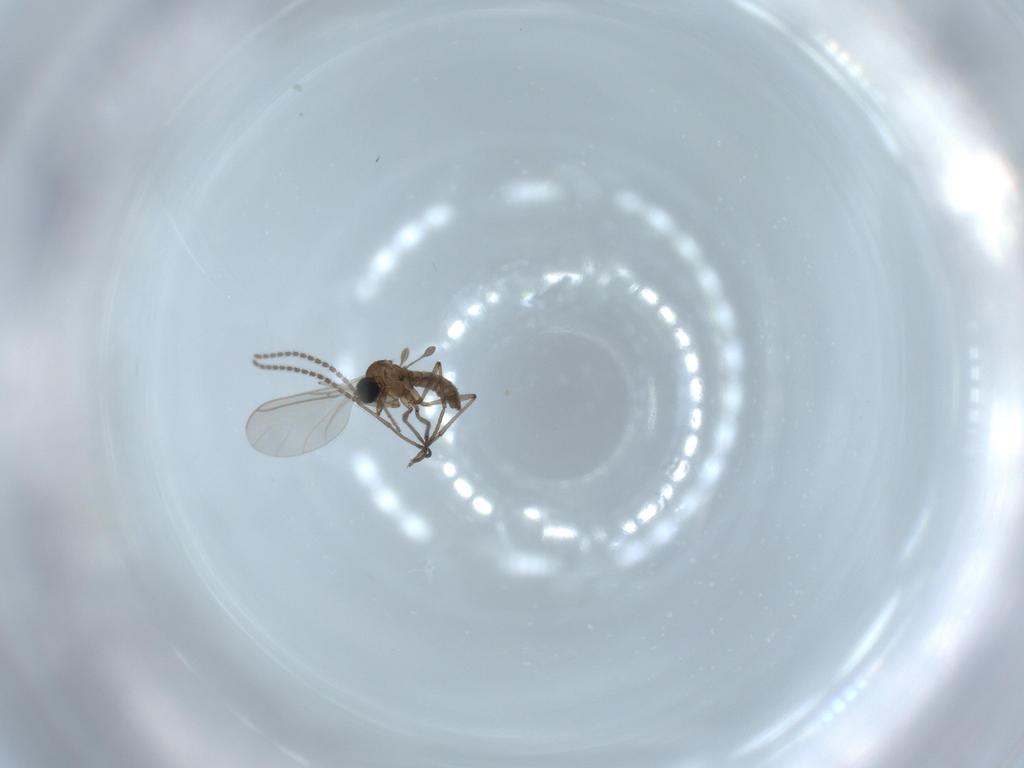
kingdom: Animalia
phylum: Arthropoda
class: Insecta
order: Diptera
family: Sciaridae
